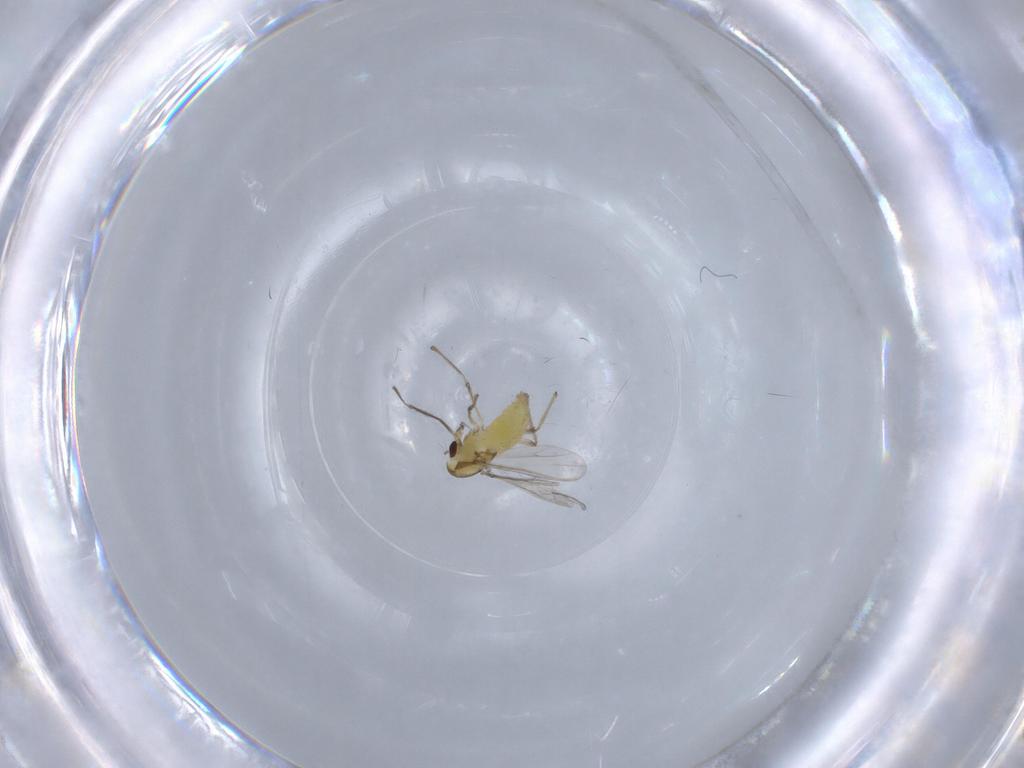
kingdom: Animalia
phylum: Arthropoda
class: Insecta
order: Diptera
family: Chironomidae
